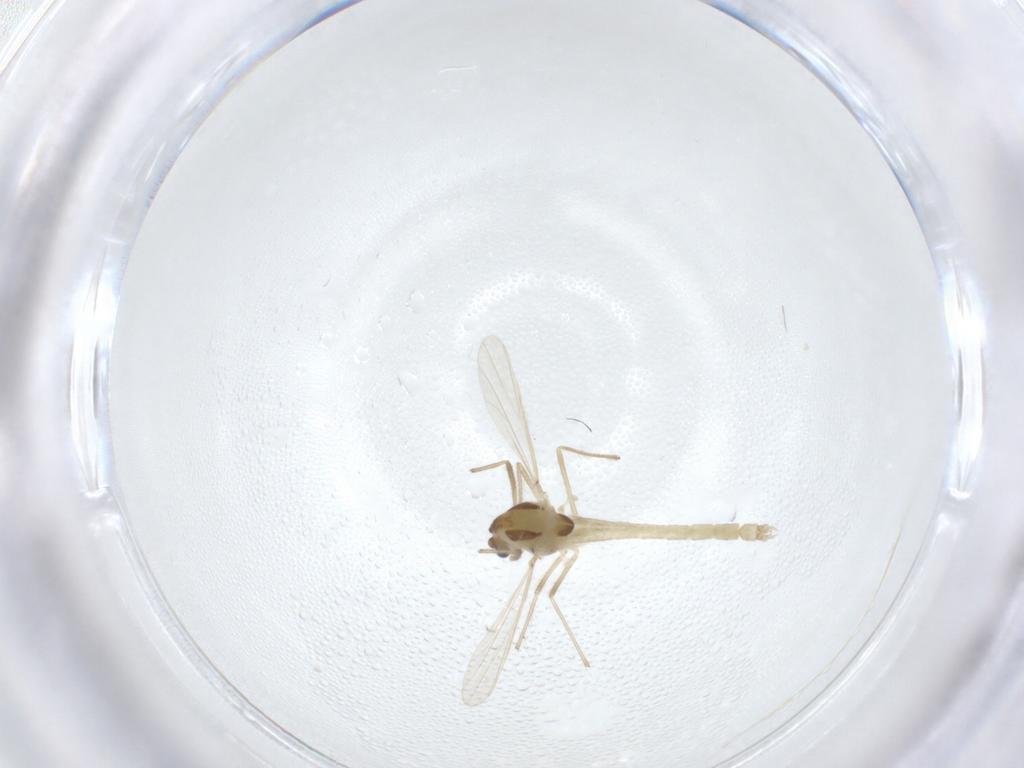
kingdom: Animalia
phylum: Arthropoda
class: Insecta
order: Diptera
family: Chironomidae
